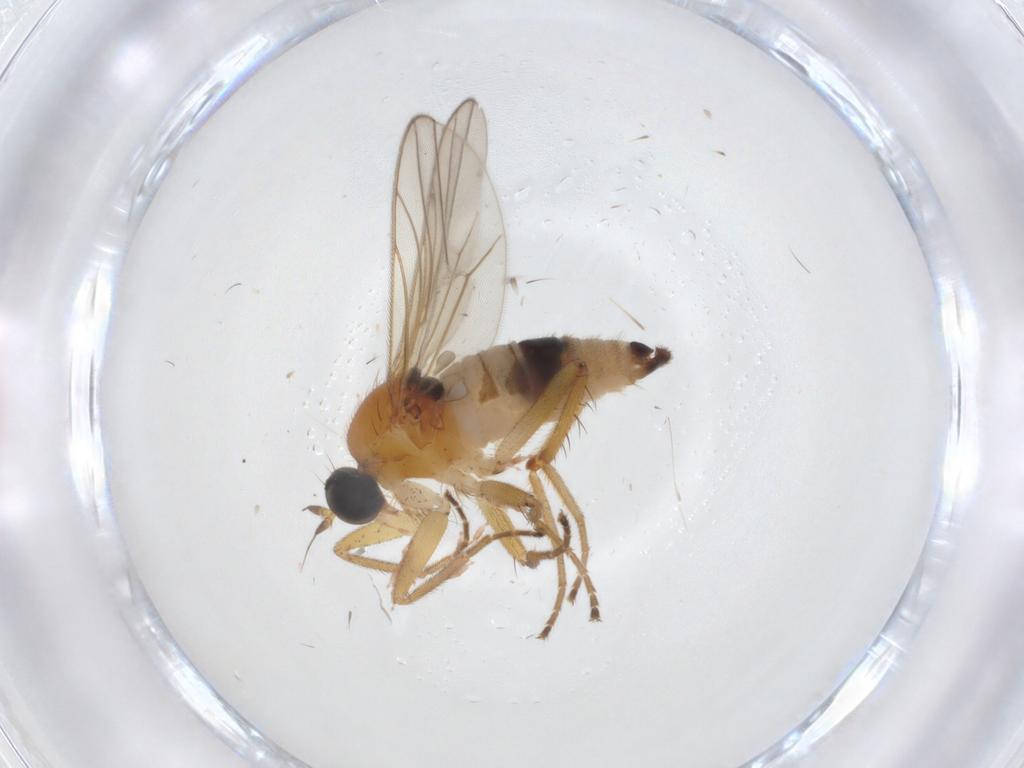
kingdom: Animalia
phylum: Arthropoda
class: Insecta
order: Diptera
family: Hybotidae
